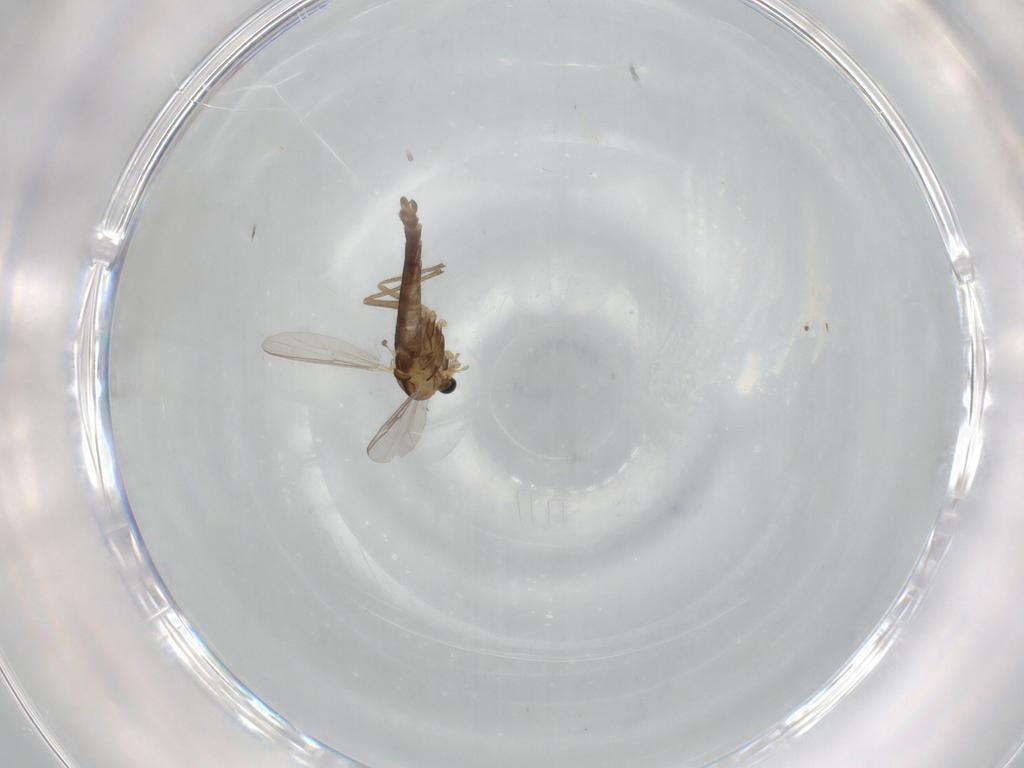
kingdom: Animalia
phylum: Arthropoda
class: Insecta
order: Diptera
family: Chironomidae
